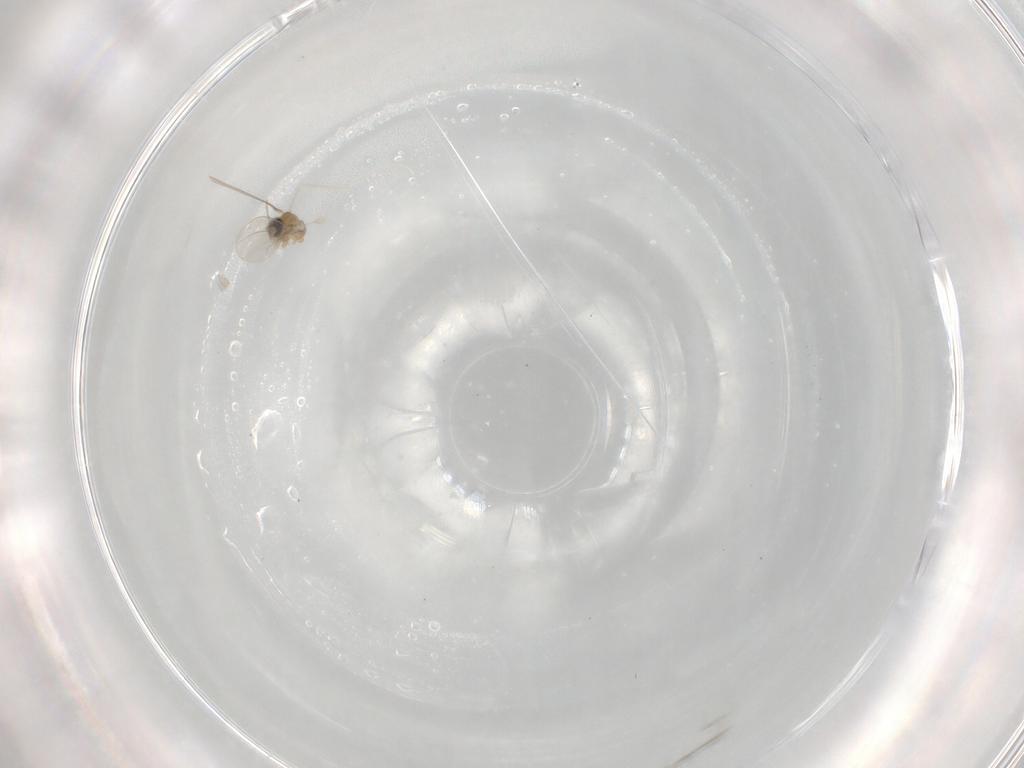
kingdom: Animalia
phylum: Arthropoda
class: Insecta
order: Diptera
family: Cecidomyiidae
